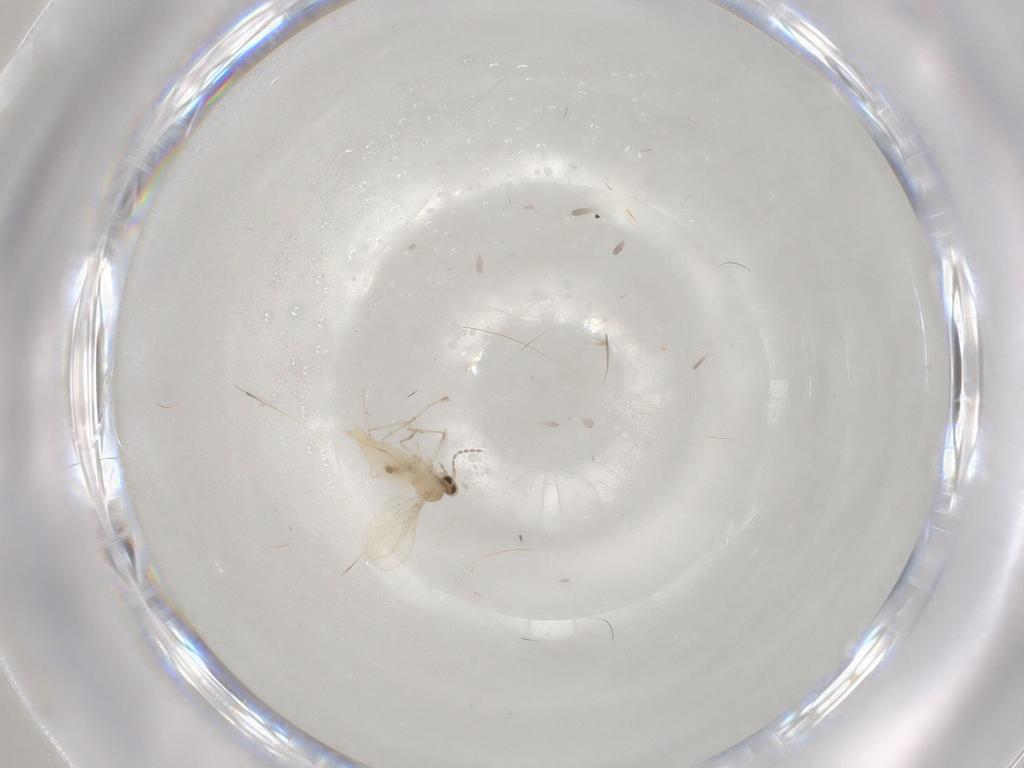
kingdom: Animalia
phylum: Arthropoda
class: Insecta
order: Diptera
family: Cecidomyiidae
